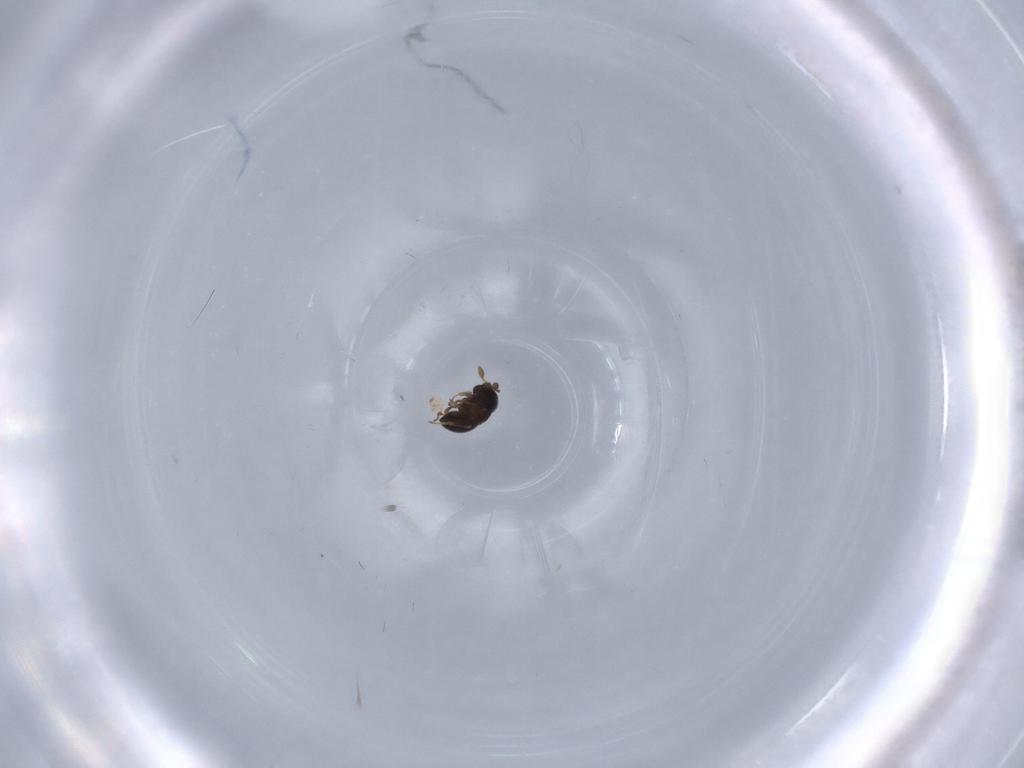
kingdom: Animalia
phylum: Arthropoda
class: Insecta
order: Hymenoptera
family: Scelionidae
